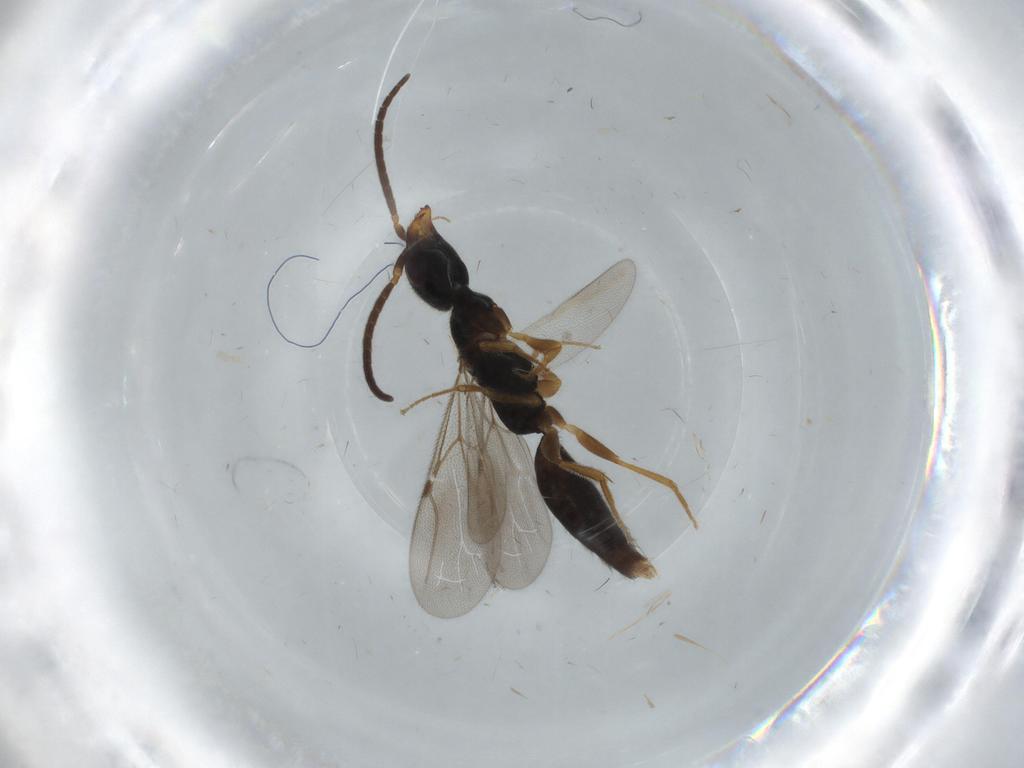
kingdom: Animalia
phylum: Arthropoda
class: Insecta
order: Hymenoptera
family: Bethylidae
